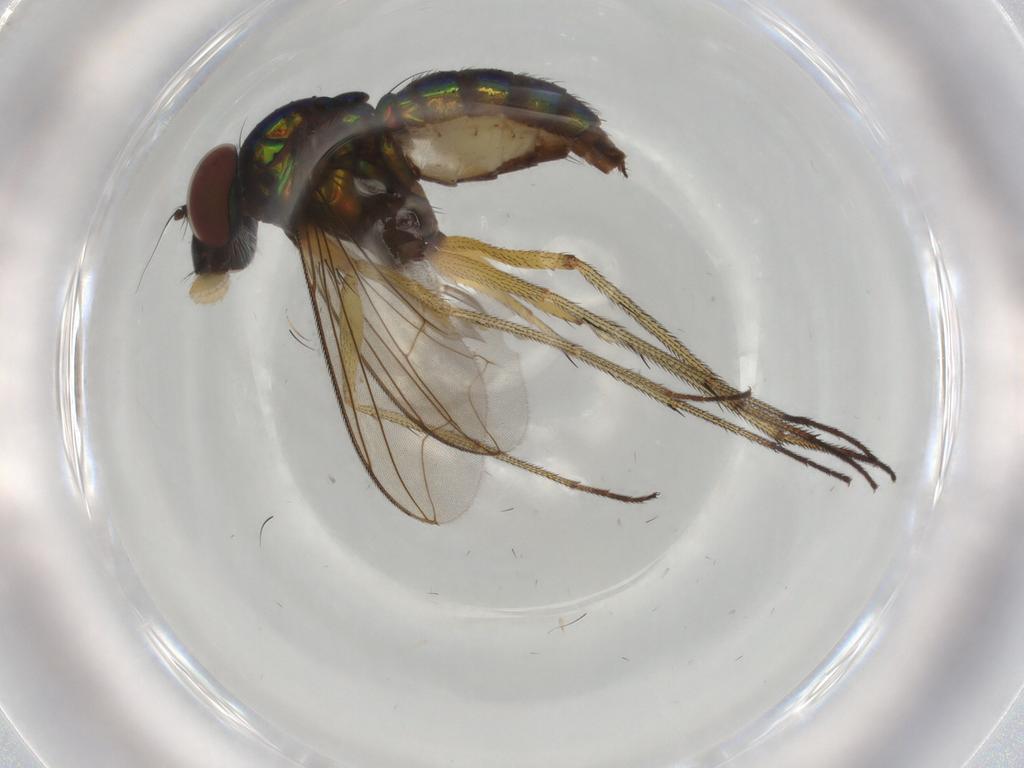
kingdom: Animalia
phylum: Arthropoda
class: Insecta
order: Diptera
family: Dolichopodidae
